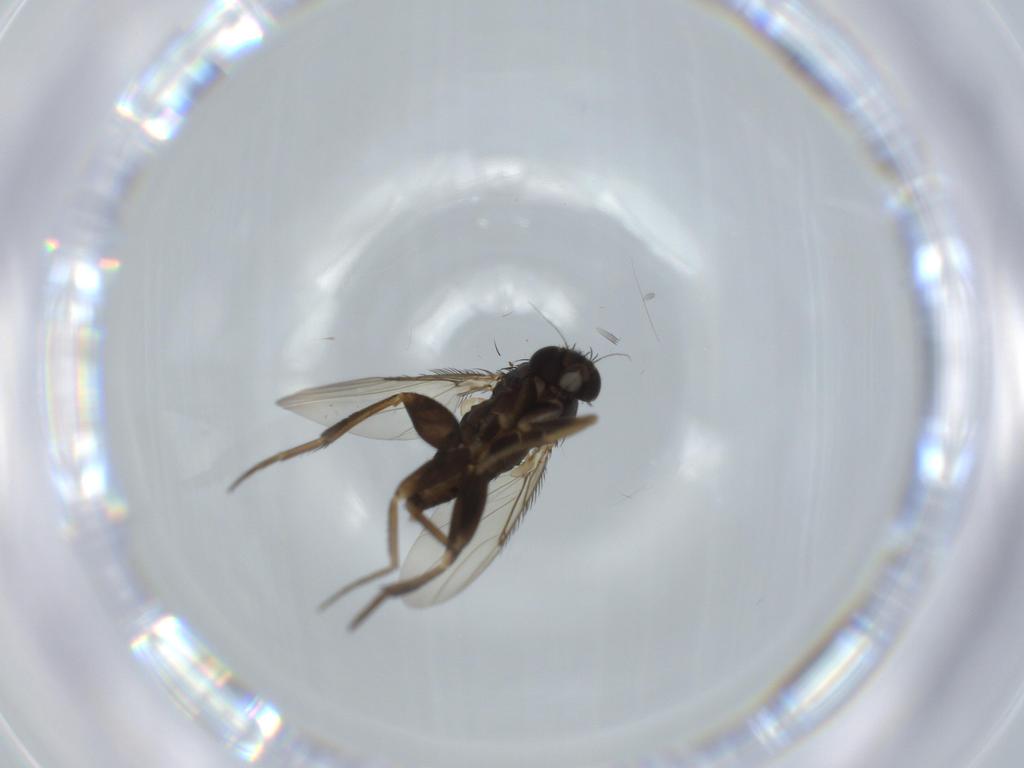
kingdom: Animalia
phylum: Arthropoda
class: Insecta
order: Diptera
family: Phoridae
